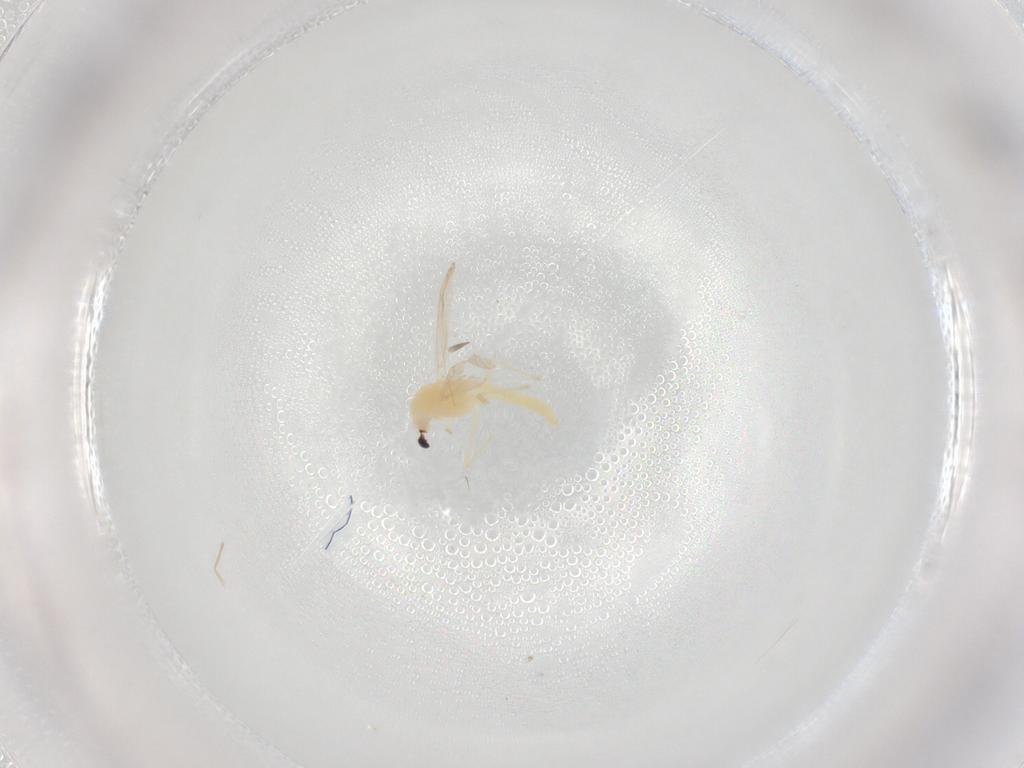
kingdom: Animalia
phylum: Arthropoda
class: Insecta
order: Diptera
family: Chironomidae
